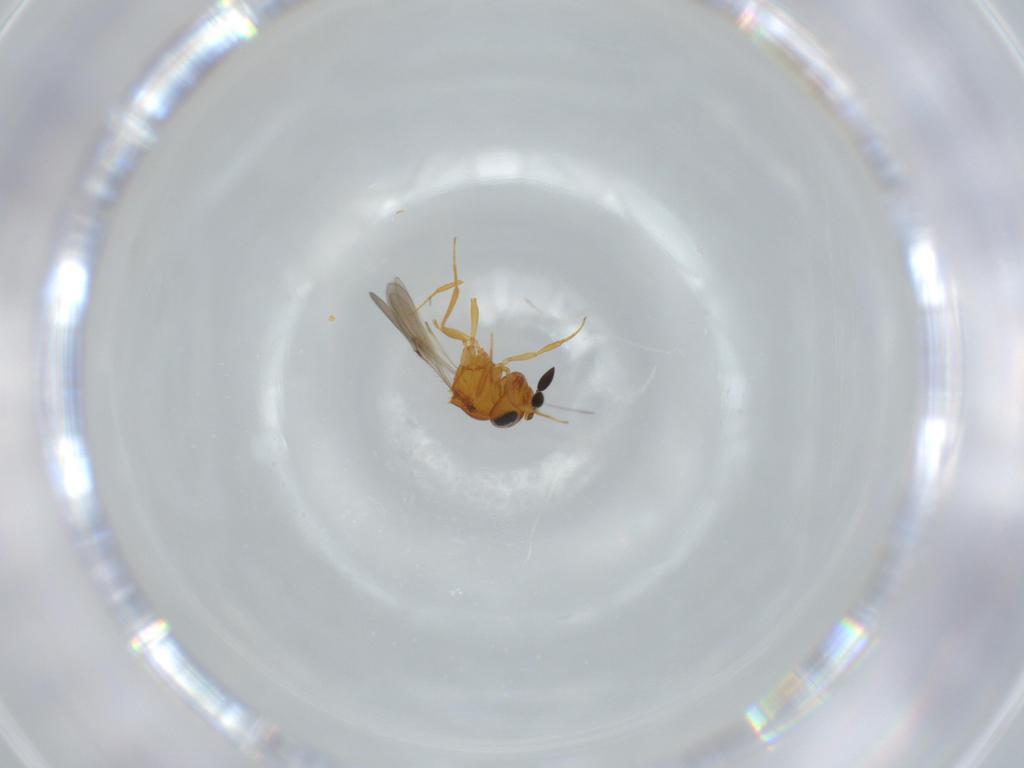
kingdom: Animalia
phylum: Arthropoda
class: Insecta
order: Hymenoptera
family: Scelionidae
